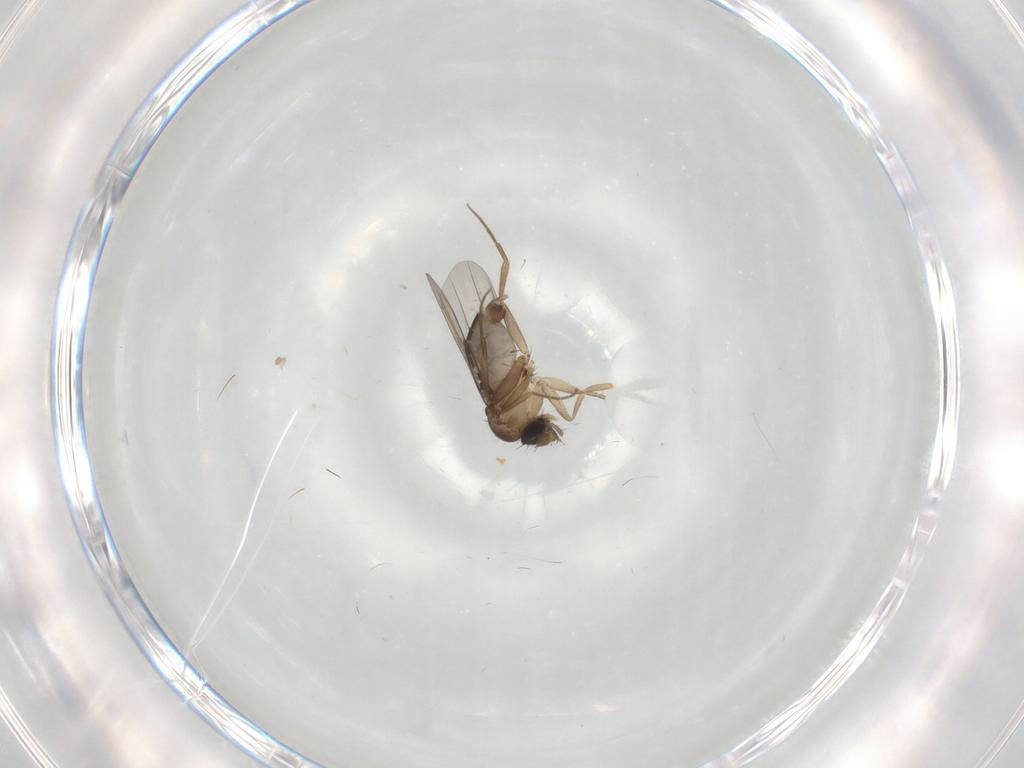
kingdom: Animalia
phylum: Arthropoda
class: Insecta
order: Diptera
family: Phoridae
